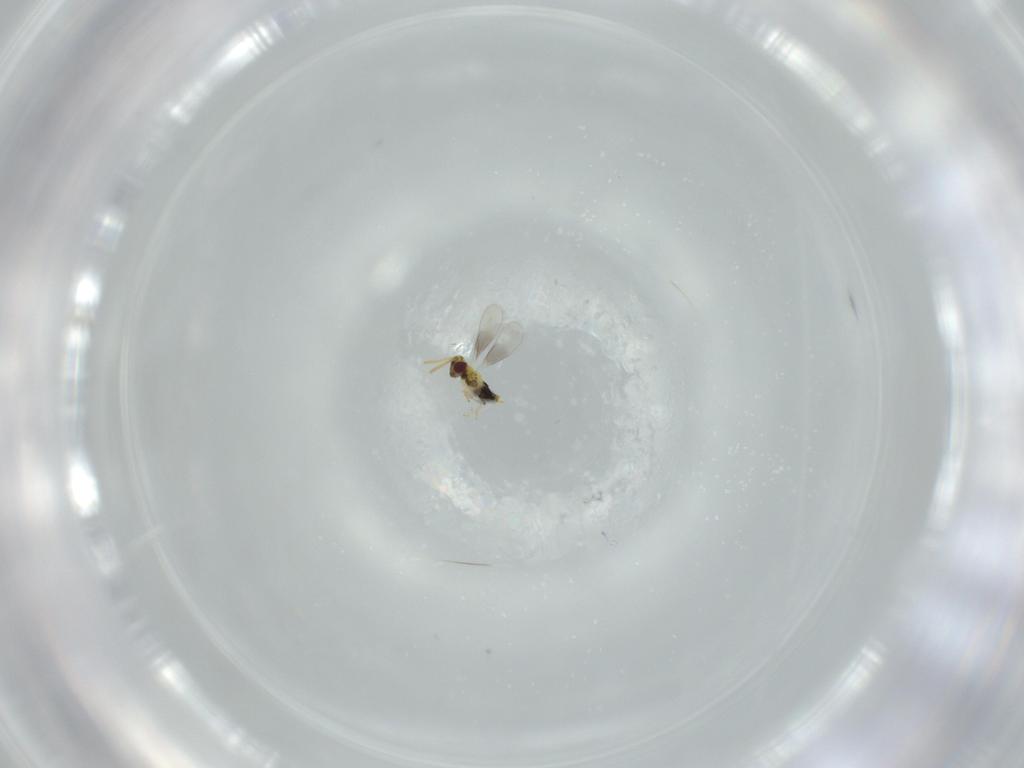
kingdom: Animalia
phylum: Arthropoda
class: Insecta
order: Hymenoptera
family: Aphelinidae
